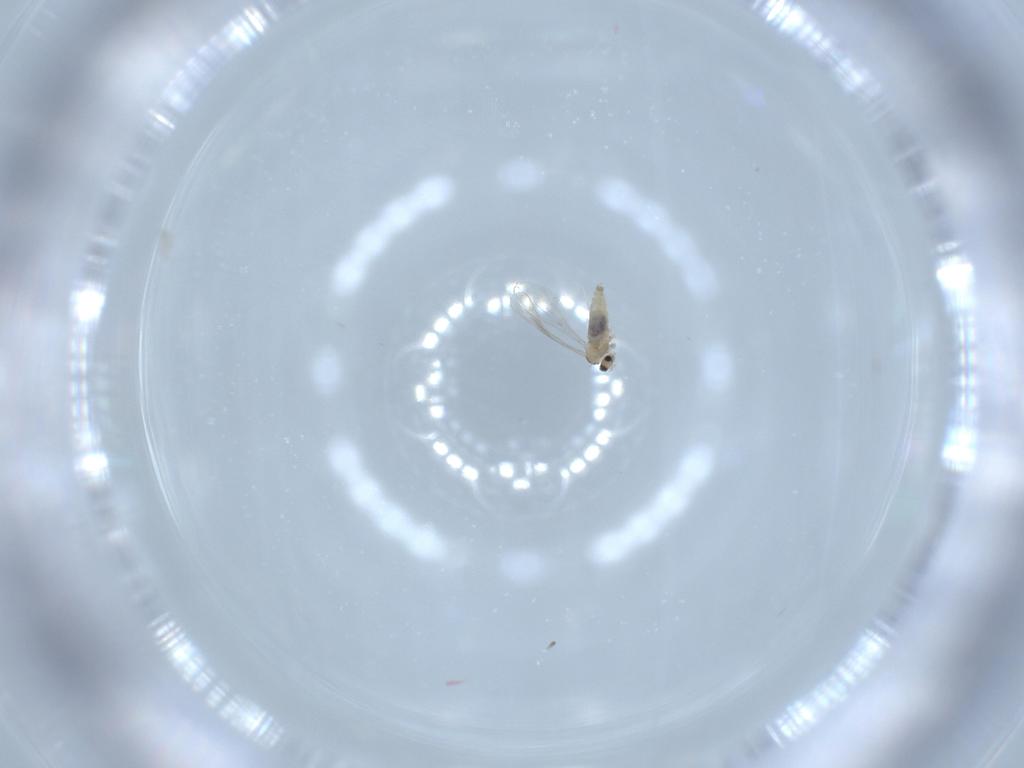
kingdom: Animalia
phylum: Arthropoda
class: Insecta
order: Diptera
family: Cecidomyiidae
